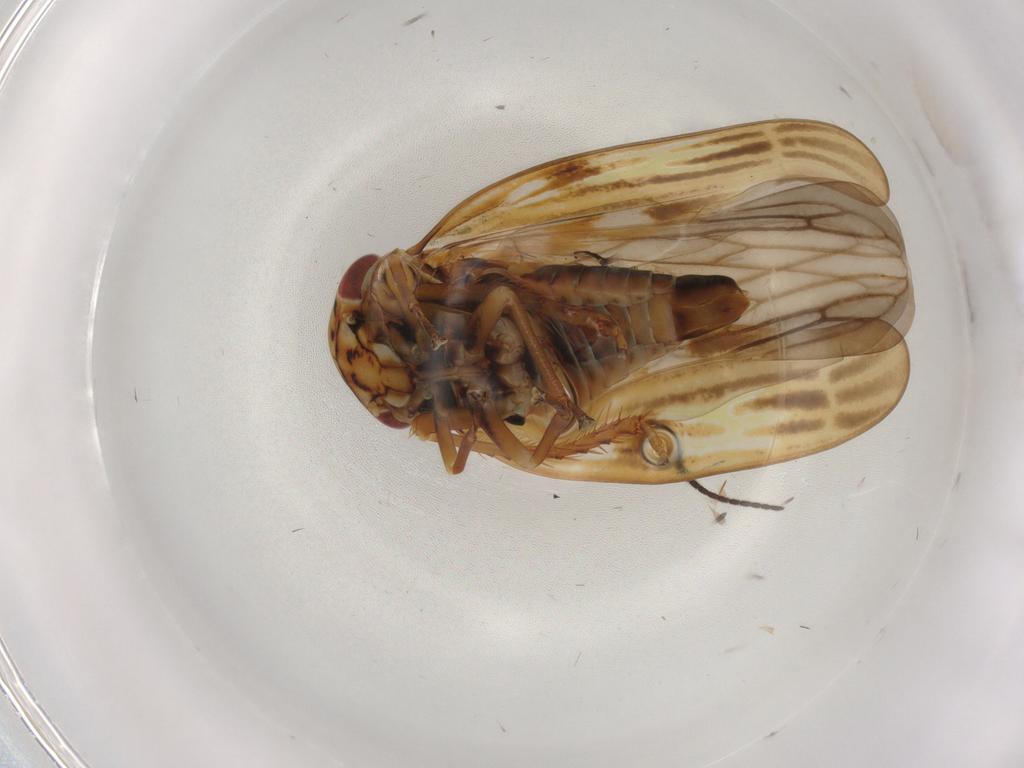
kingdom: Animalia
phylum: Arthropoda
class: Insecta
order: Hemiptera
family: Cicadellidae
